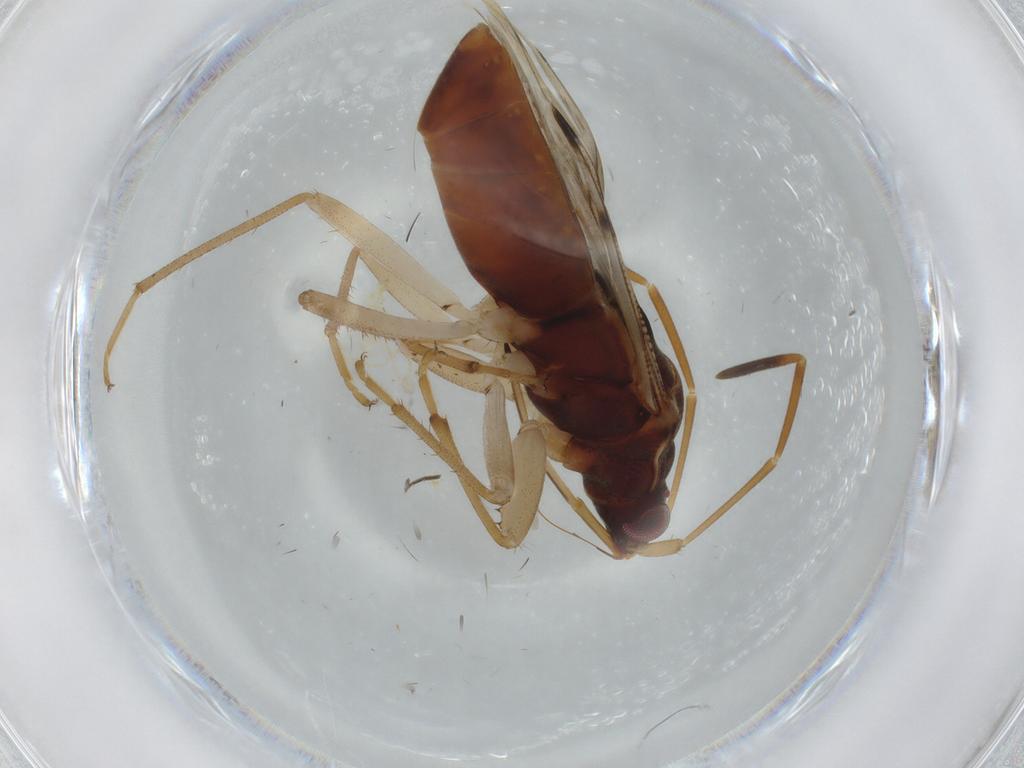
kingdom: Animalia
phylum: Arthropoda
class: Insecta
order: Hemiptera
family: Rhyparochromidae
